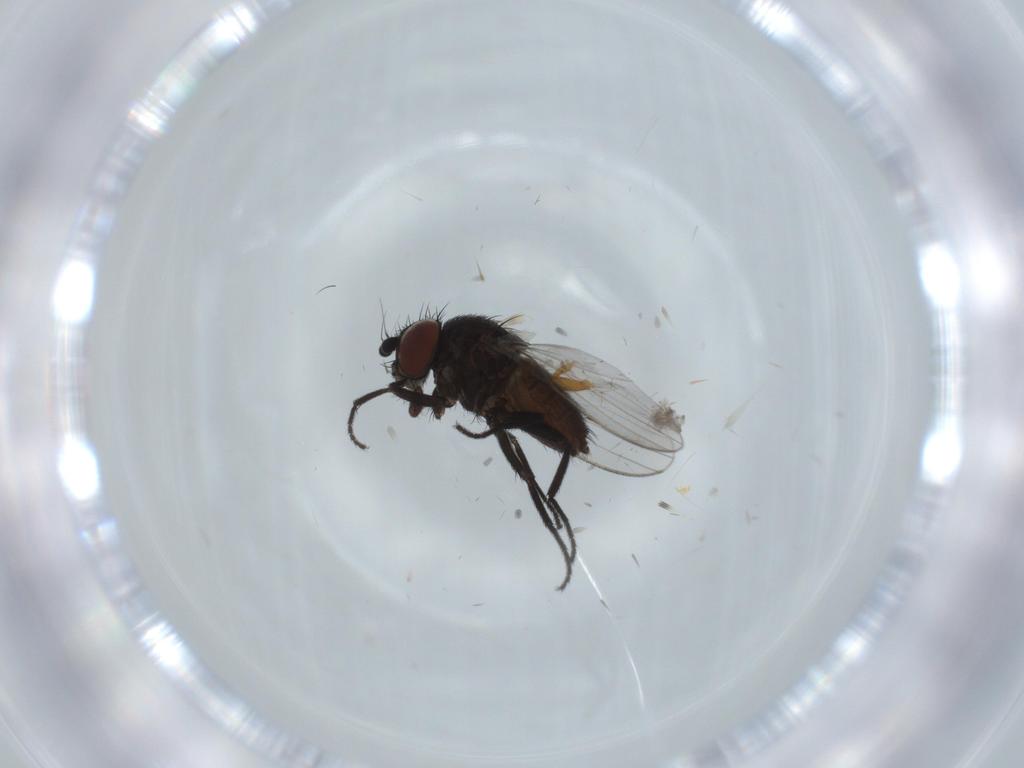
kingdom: Animalia
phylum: Arthropoda
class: Insecta
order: Diptera
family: Milichiidae
